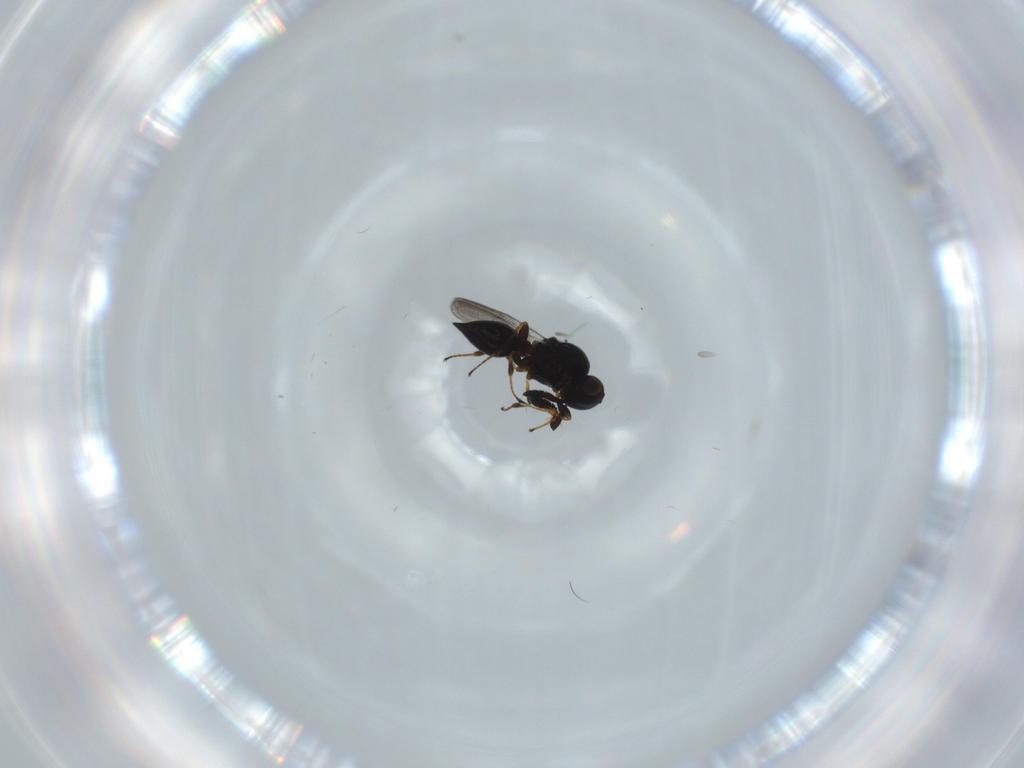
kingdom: Animalia
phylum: Arthropoda
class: Insecta
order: Hymenoptera
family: Platygastridae
